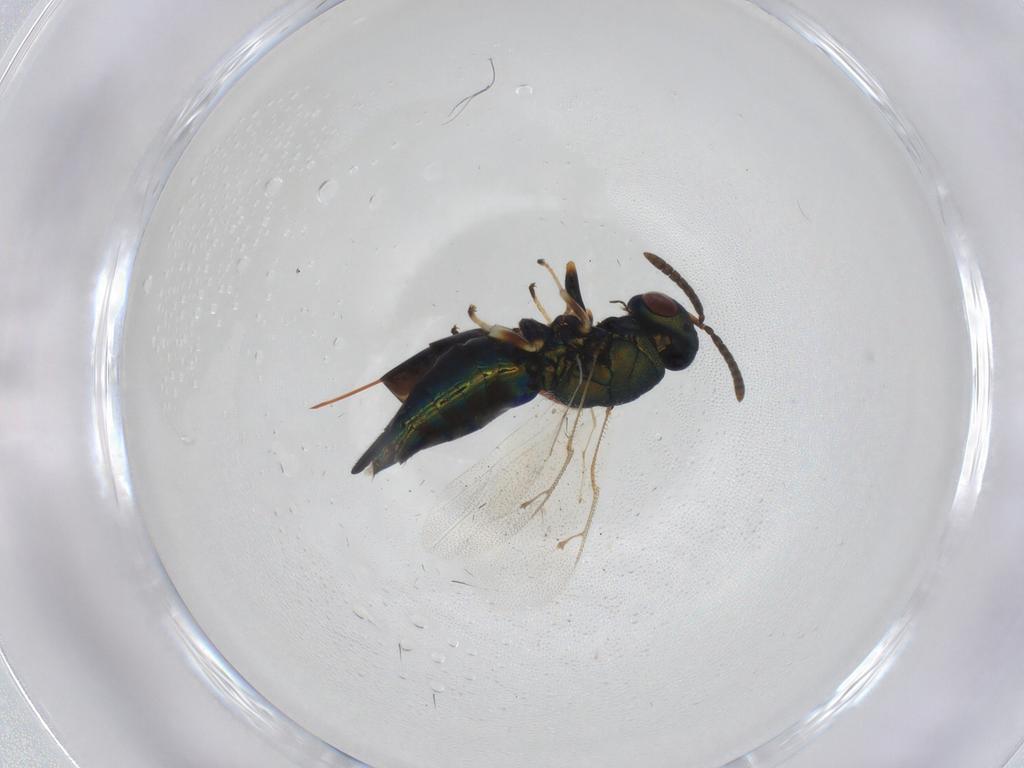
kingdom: Animalia
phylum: Arthropoda
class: Insecta
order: Hymenoptera
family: Pteromalidae
